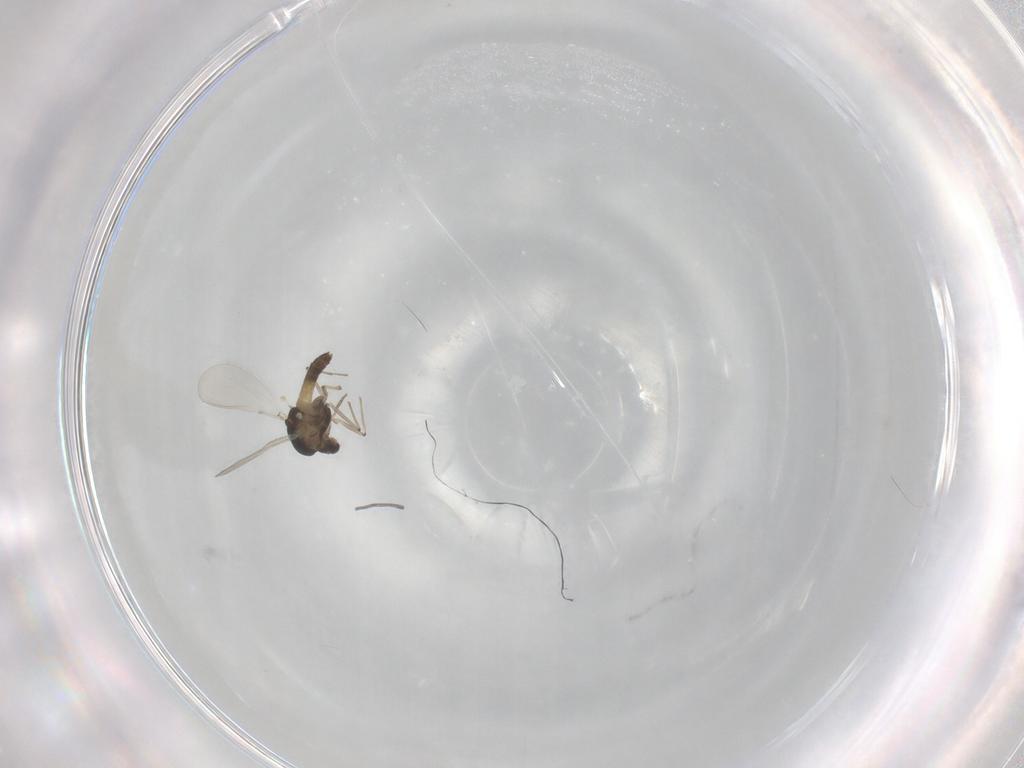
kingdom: Animalia
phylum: Arthropoda
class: Insecta
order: Diptera
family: Chironomidae
